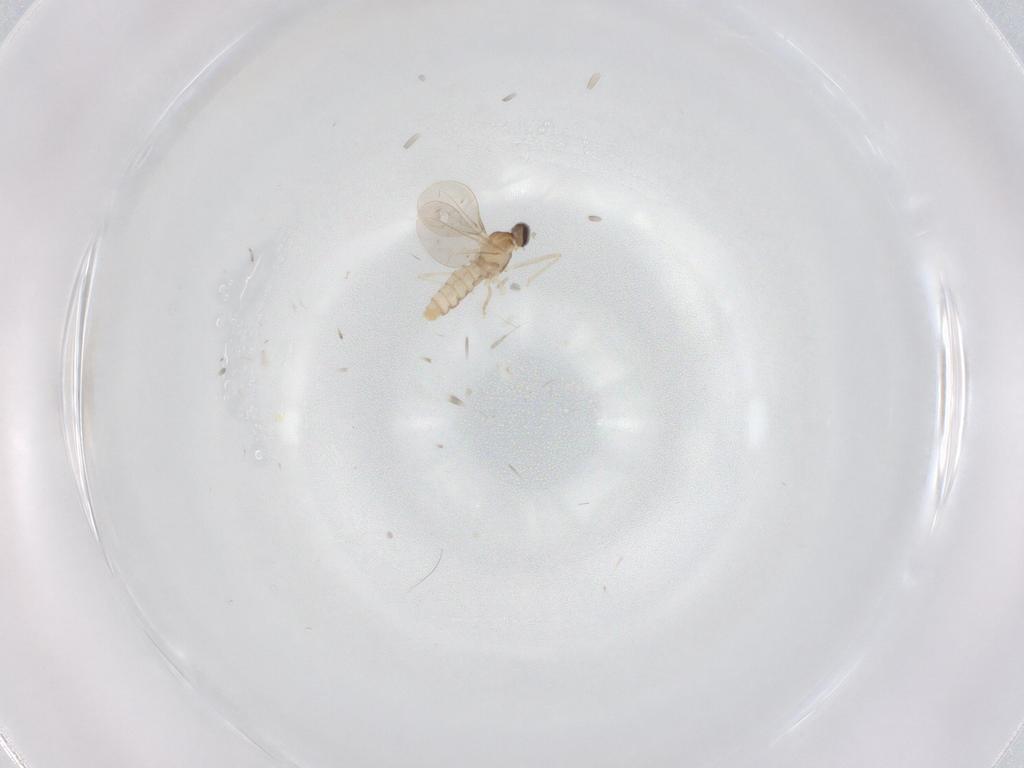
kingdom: Animalia
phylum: Arthropoda
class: Insecta
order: Diptera
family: Cecidomyiidae
